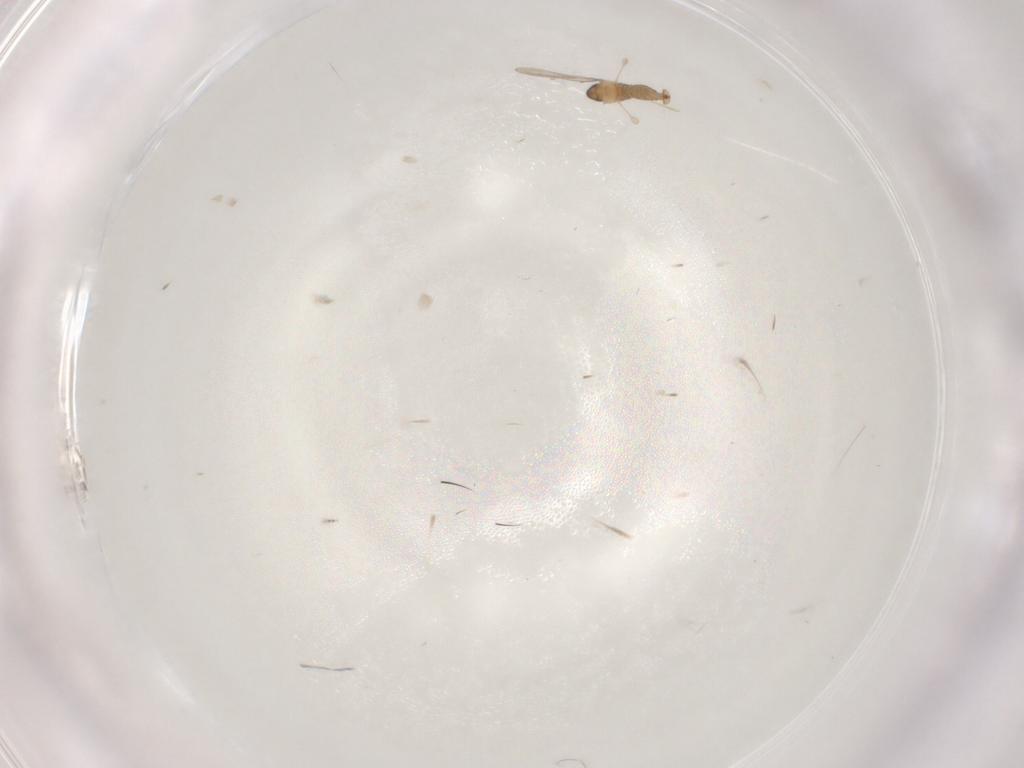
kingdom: Animalia
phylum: Arthropoda
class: Insecta
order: Diptera
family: Cecidomyiidae
